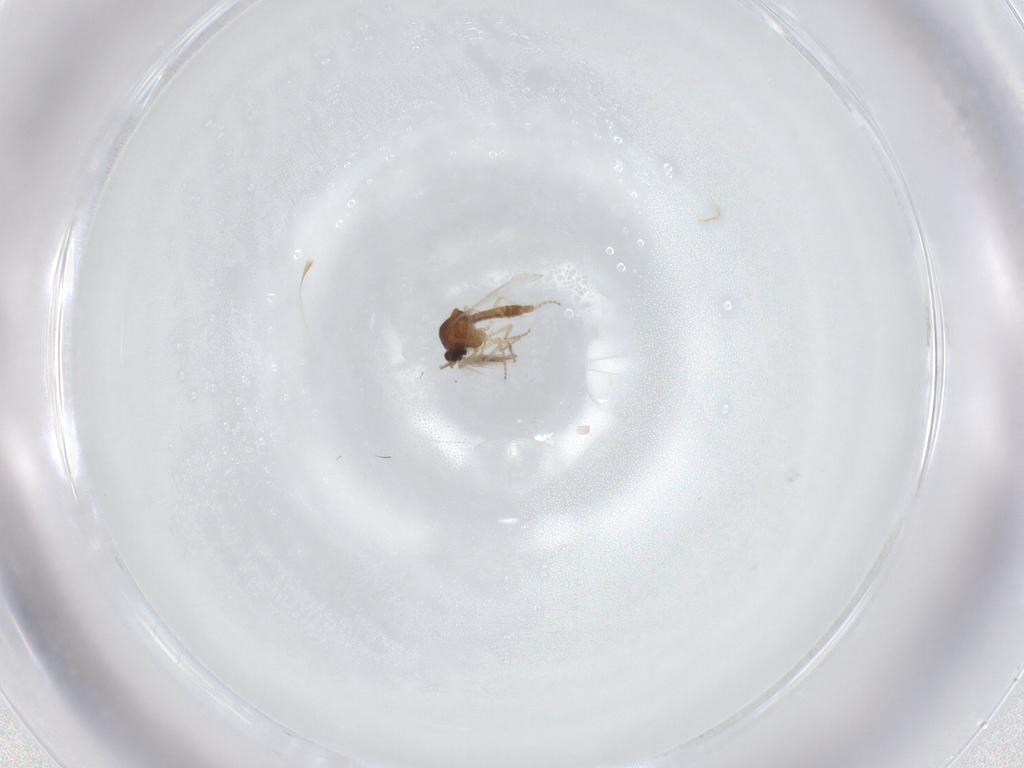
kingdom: Animalia
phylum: Arthropoda
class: Insecta
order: Diptera
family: Ceratopogonidae
